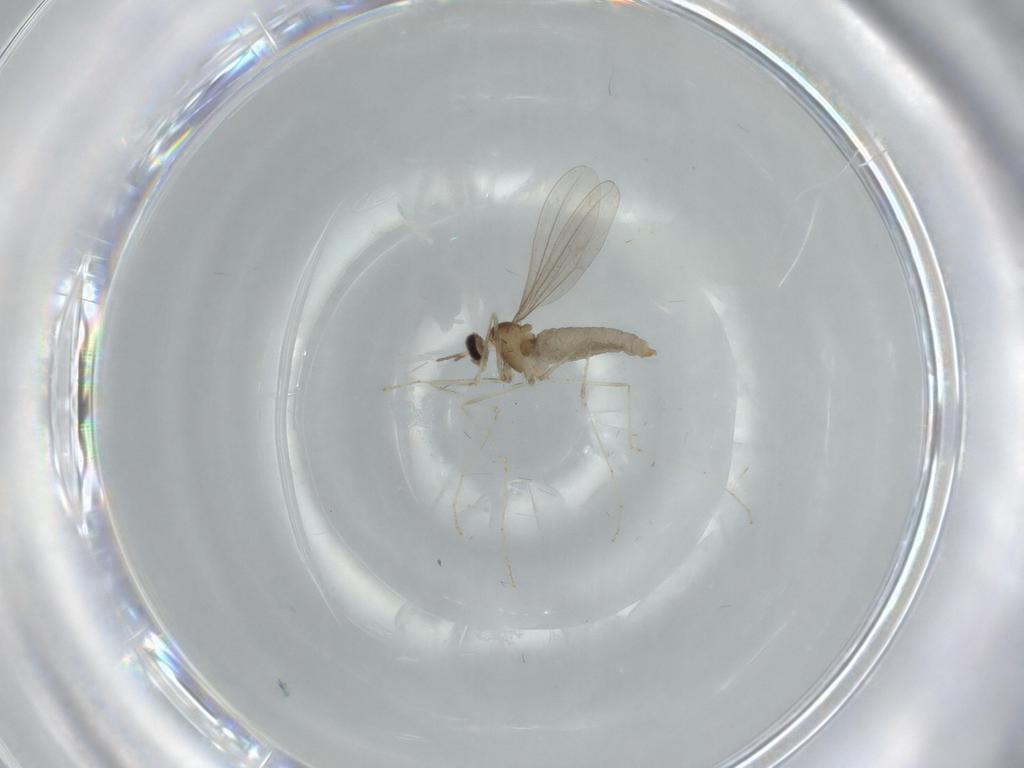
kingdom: Animalia
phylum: Arthropoda
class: Insecta
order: Diptera
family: Cecidomyiidae
